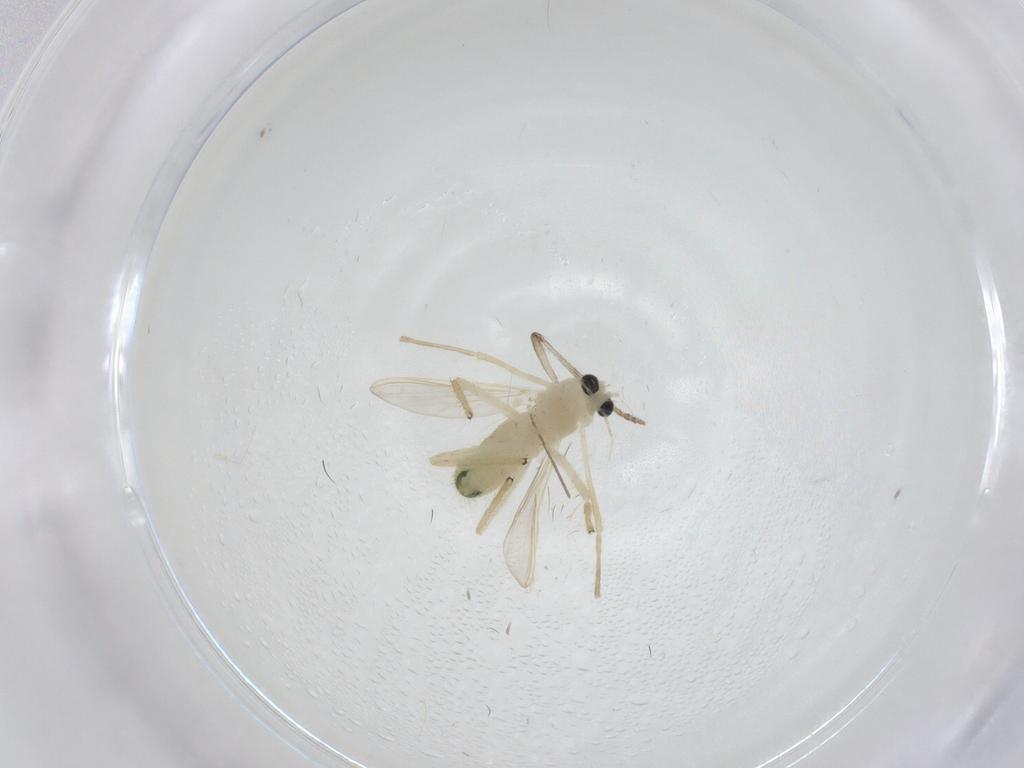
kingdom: Animalia
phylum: Arthropoda
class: Insecta
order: Diptera
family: Chironomidae
